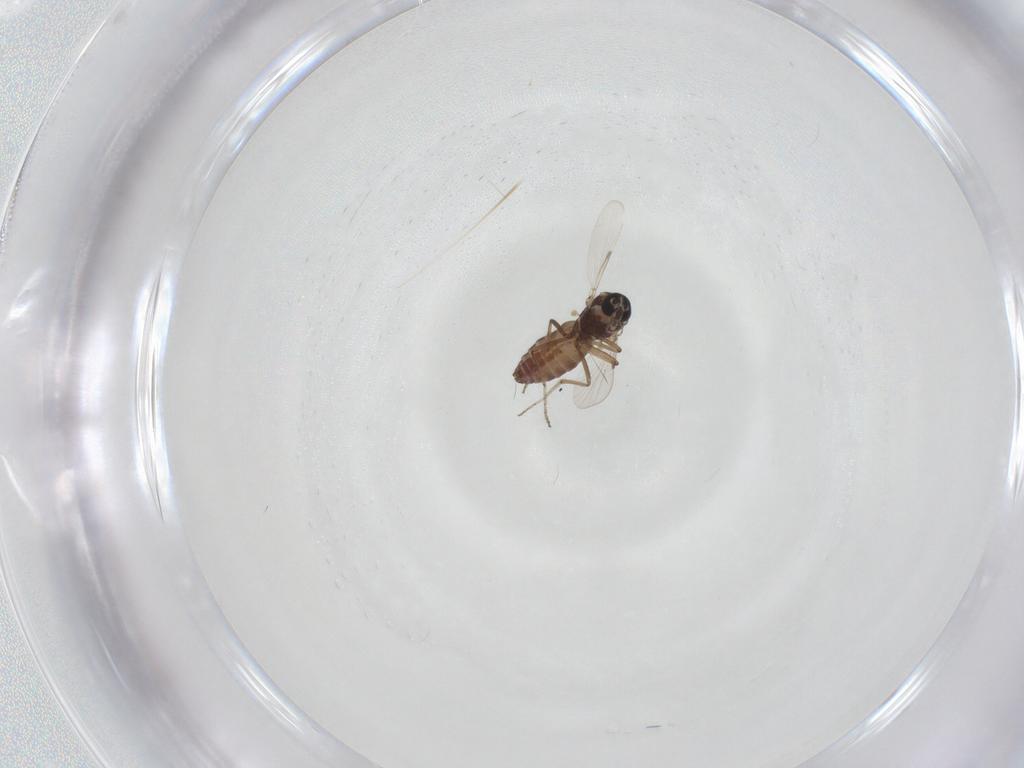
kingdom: Animalia
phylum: Arthropoda
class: Insecta
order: Diptera
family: Ceratopogonidae
